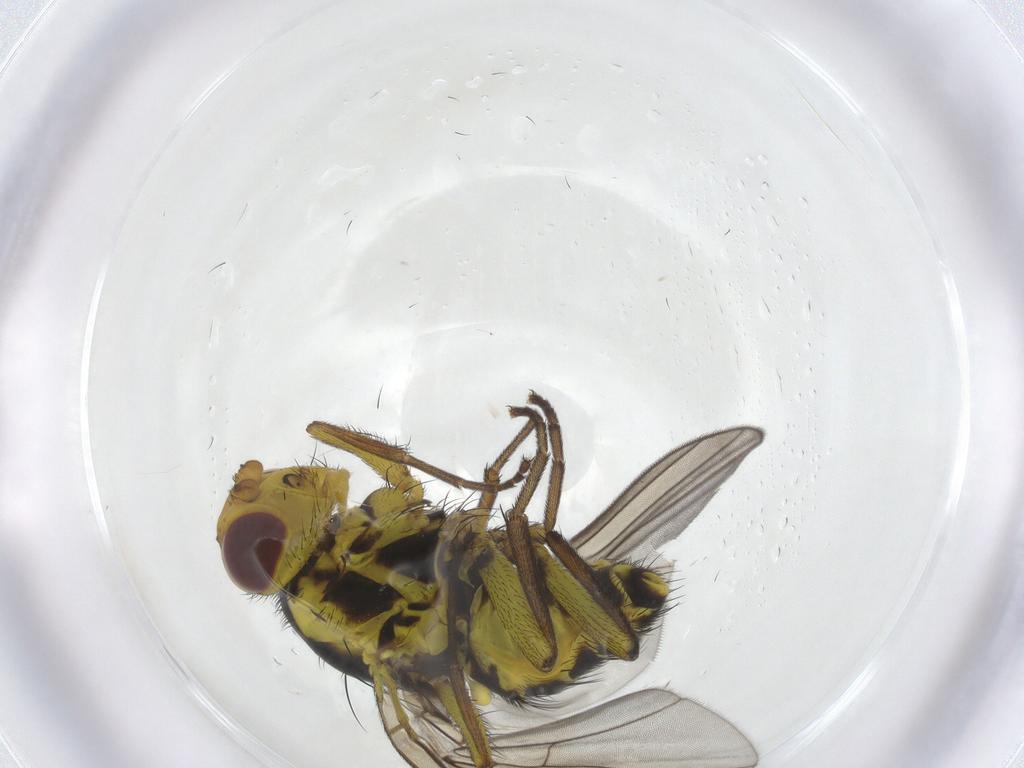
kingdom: Animalia
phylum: Arthropoda
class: Insecta
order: Diptera
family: Agromyzidae
